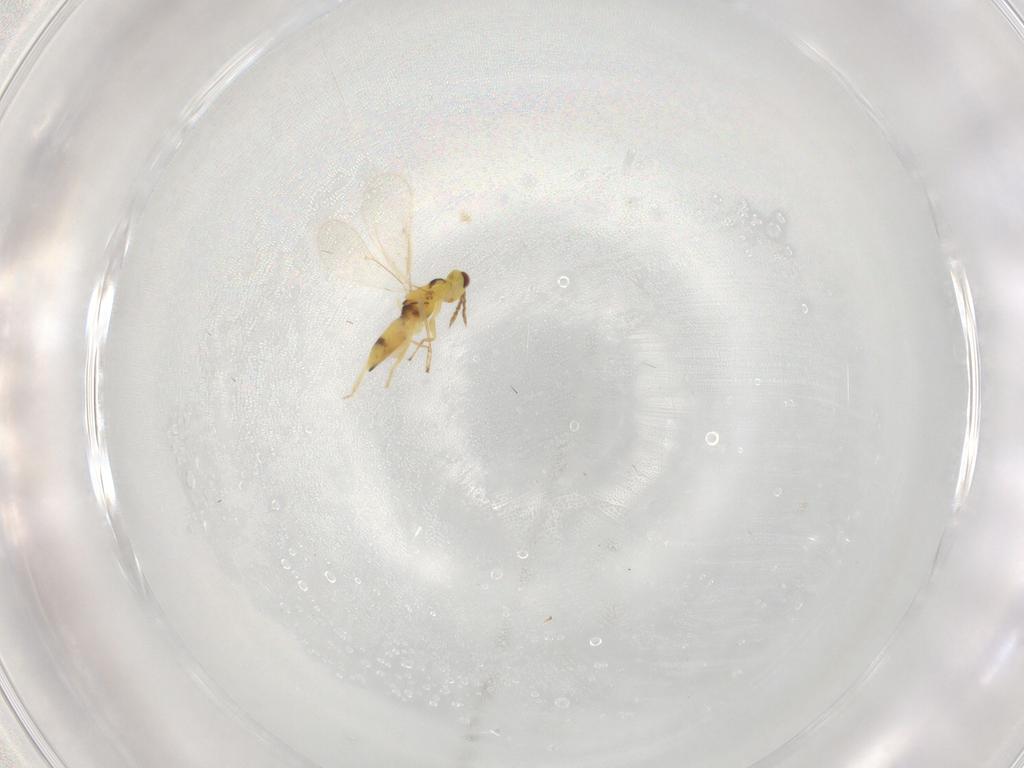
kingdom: Animalia
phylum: Arthropoda
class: Insecta
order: Hymenoptera
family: Eulophidae
